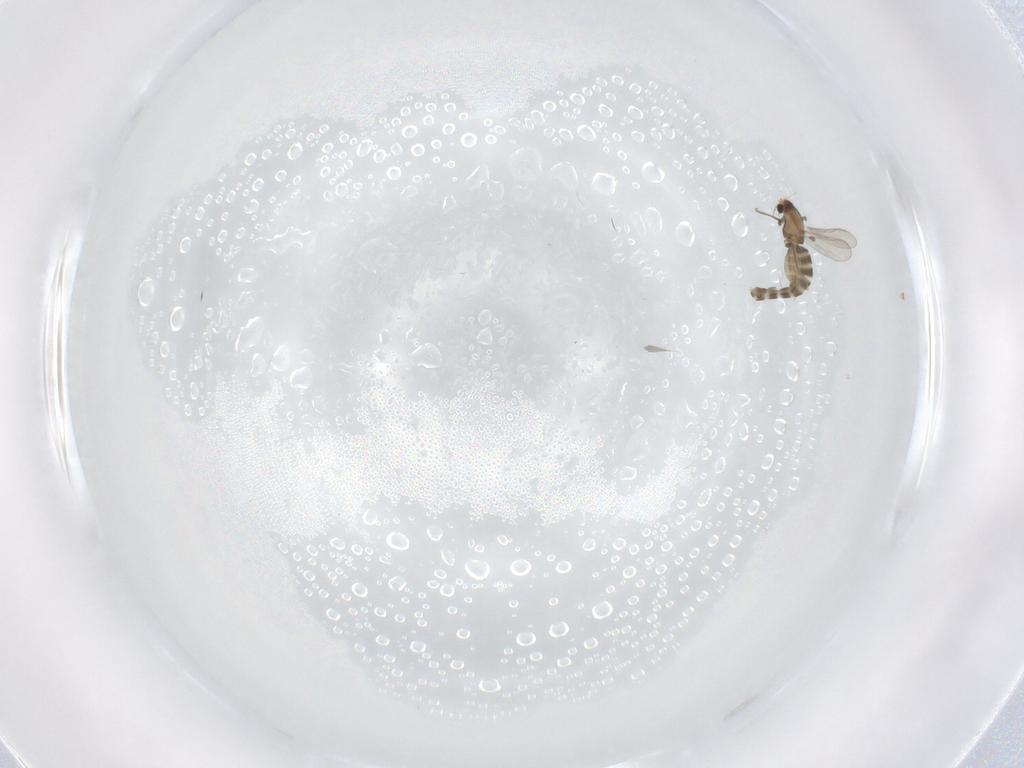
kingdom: Animalia
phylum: Arthropoda
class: Insecta
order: Diptera
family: Chironomidae
